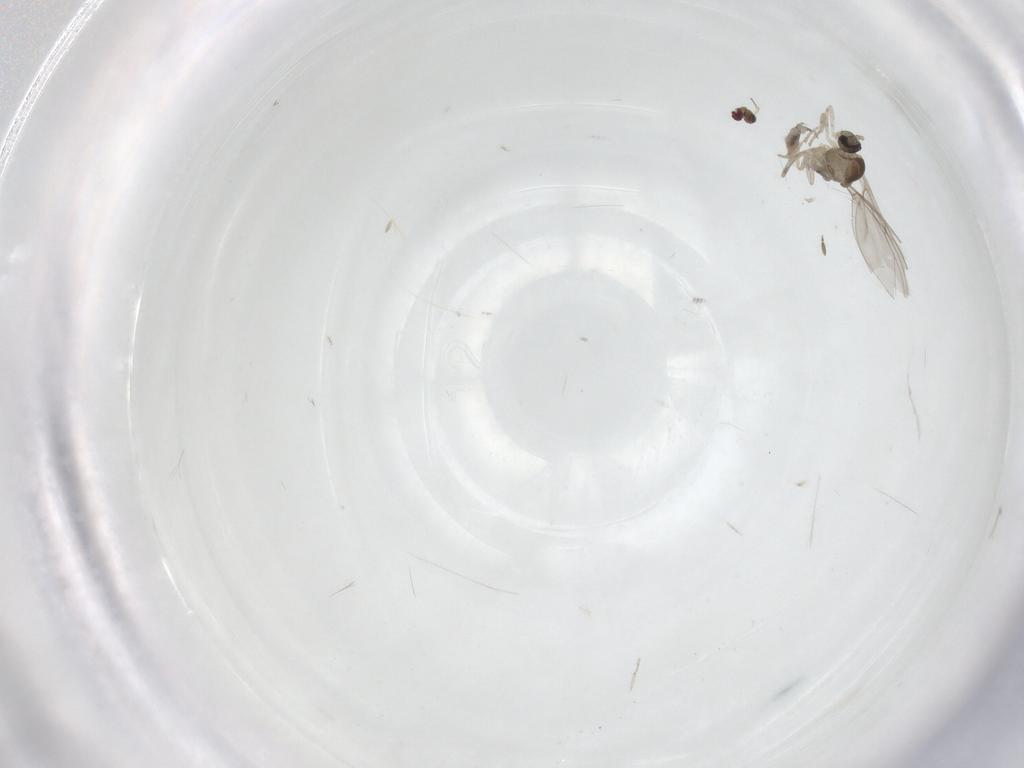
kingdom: Animalia
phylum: Arthropoda
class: Insecta
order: Diptera
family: Cecidomyiidae
